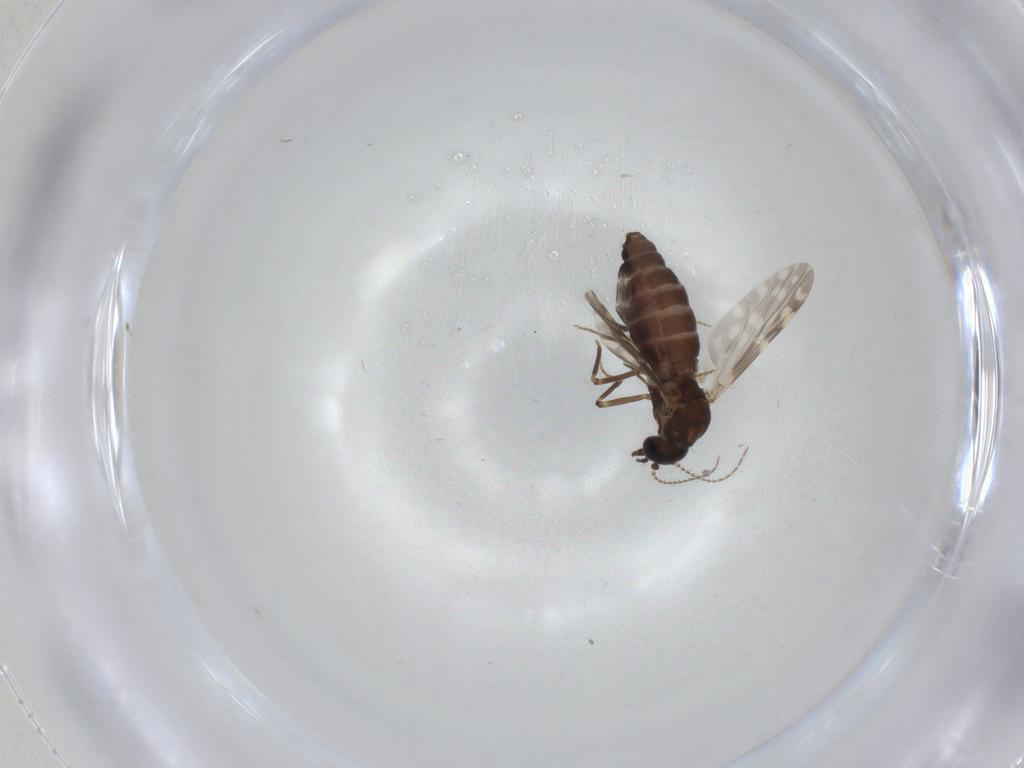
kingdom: Animalia
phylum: Arthropoda
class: Insecta
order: Diptera
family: Ceratopogonidae
